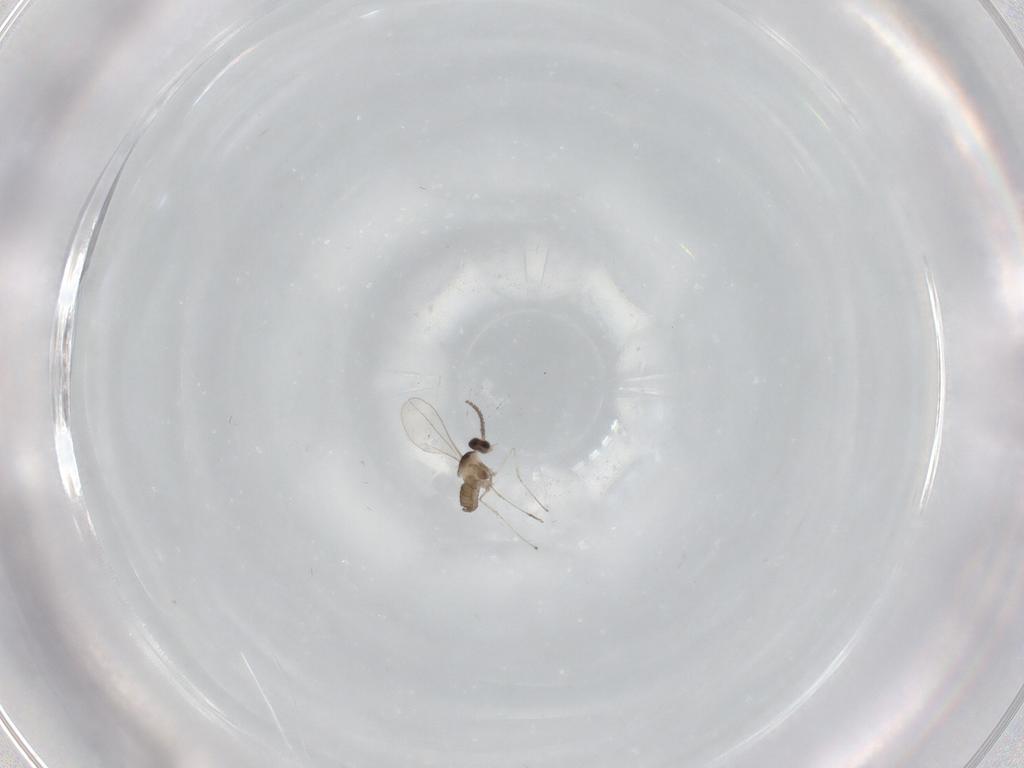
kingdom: Animalia
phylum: Arthropoda
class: Insecta
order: Diptera
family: Cecidomyiidae
